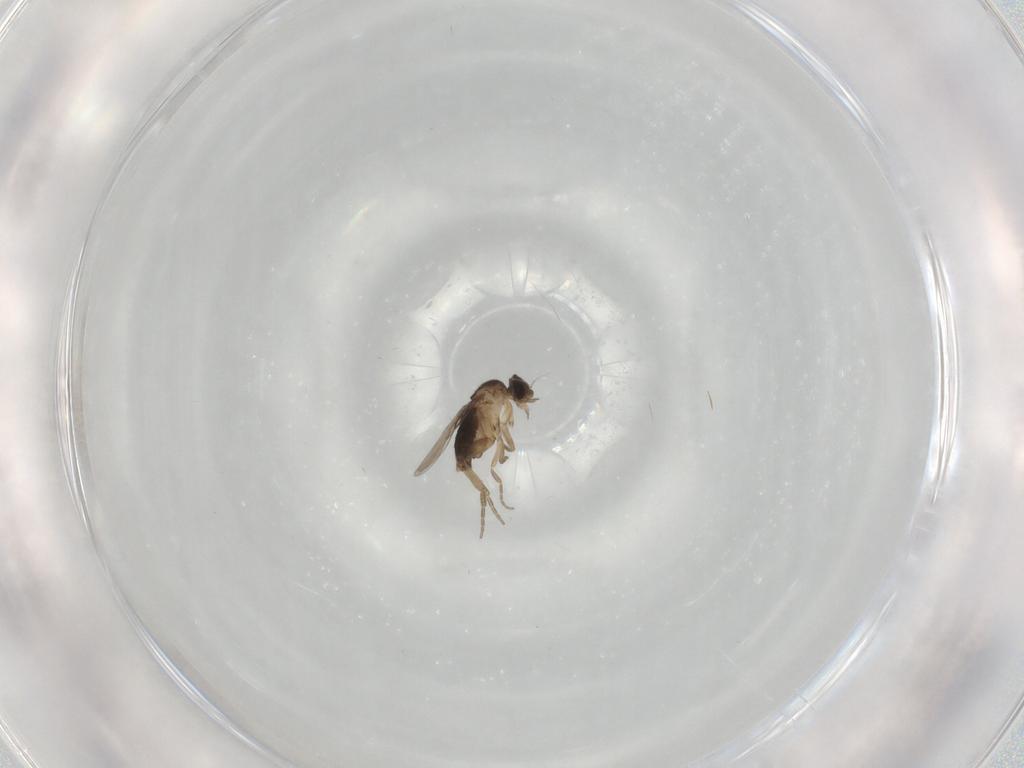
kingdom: Animalia
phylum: Arthropoda
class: Insecta
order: Diptera
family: Phoridae
